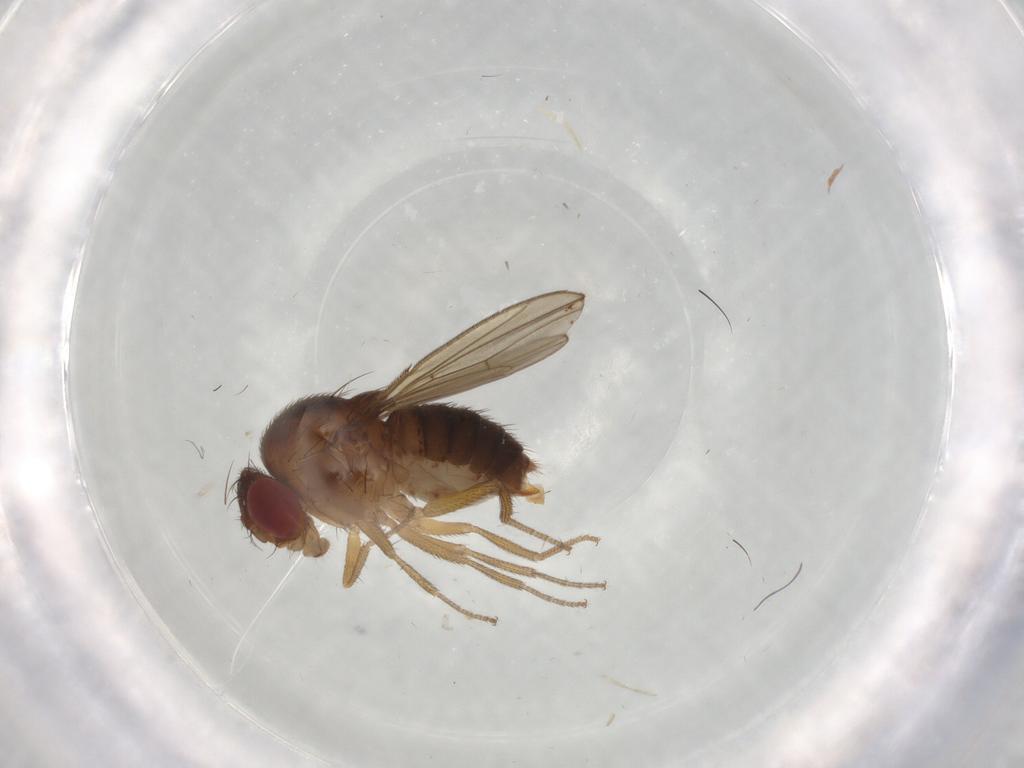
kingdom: Animalia
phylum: Arthropoda
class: Insecta
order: Diptera
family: Drosophilidae
